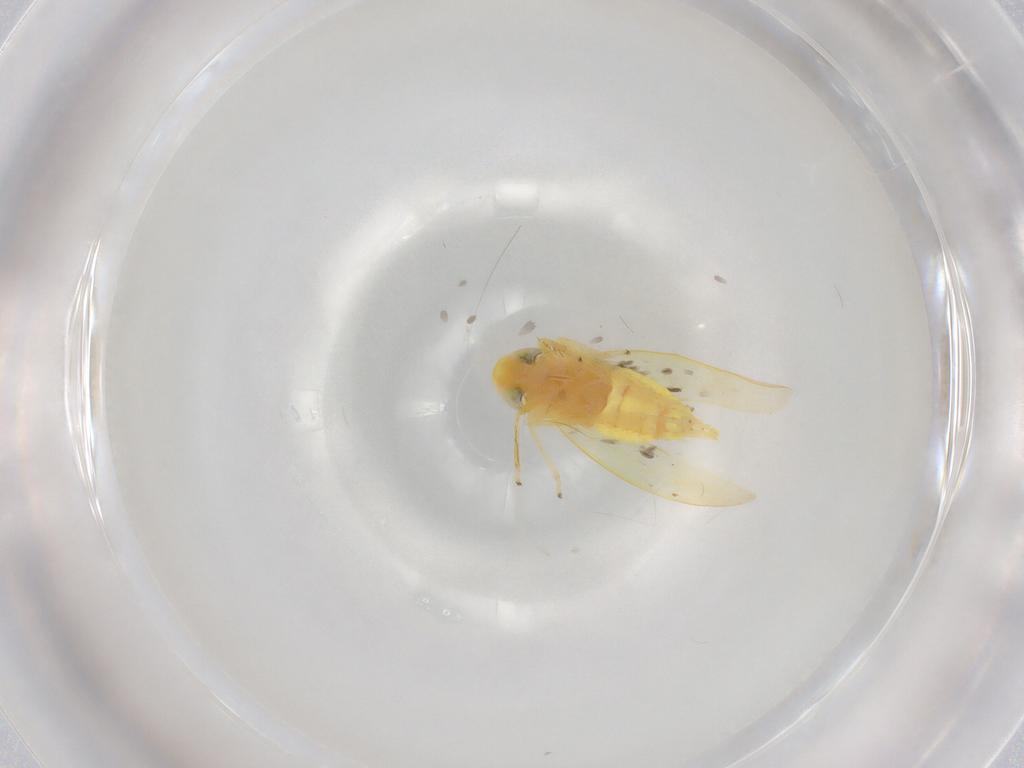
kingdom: Animalia
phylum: Arthropoda
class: Insecta
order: Hemiptera
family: Cicadellidae
